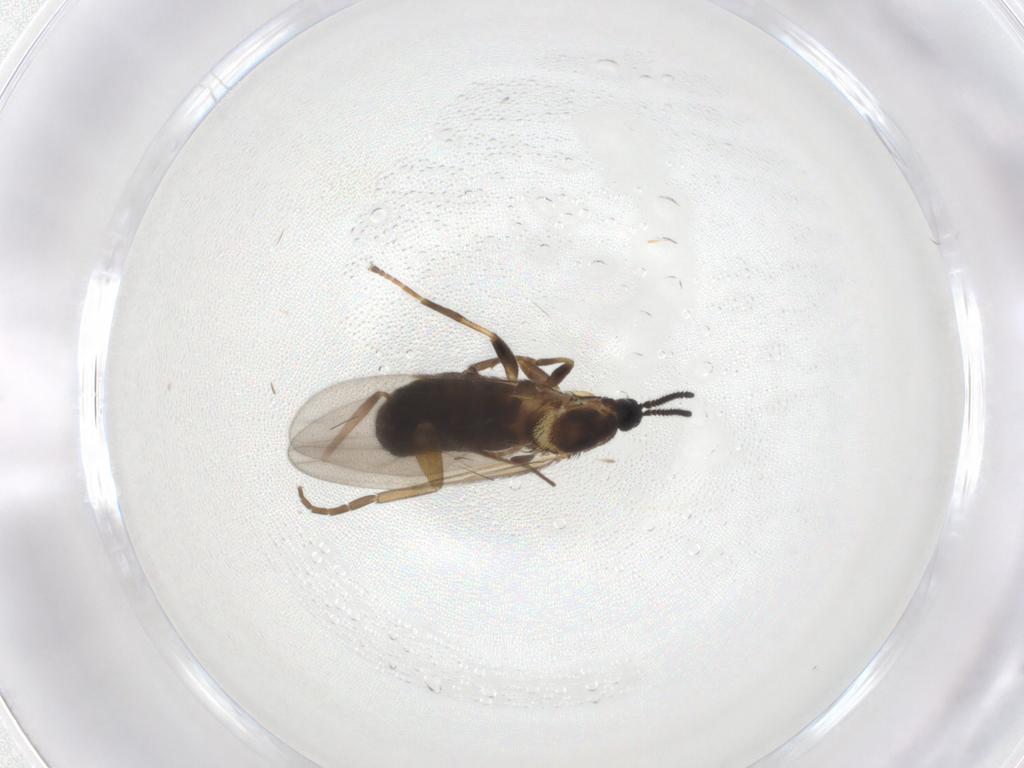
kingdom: Animalia
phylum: Arthropoda
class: Insecta
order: Diptera
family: Scatopsidae
